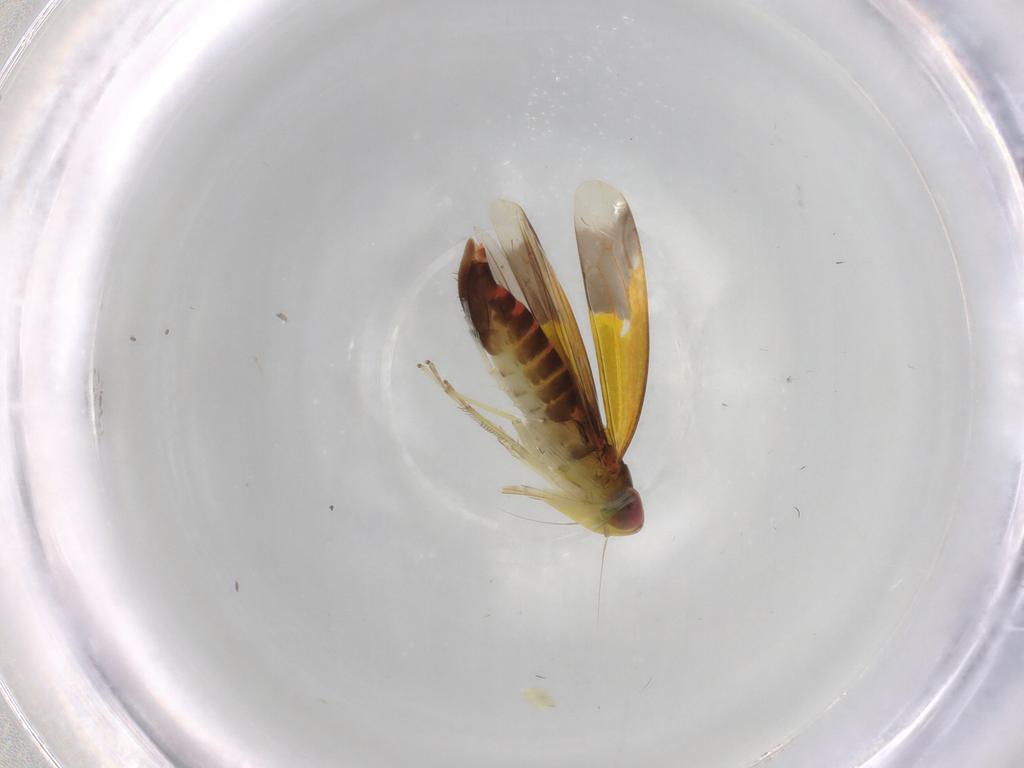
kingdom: Animalia
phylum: Arthropoda
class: Insecta
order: Hemiptera
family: Cicadellidae
